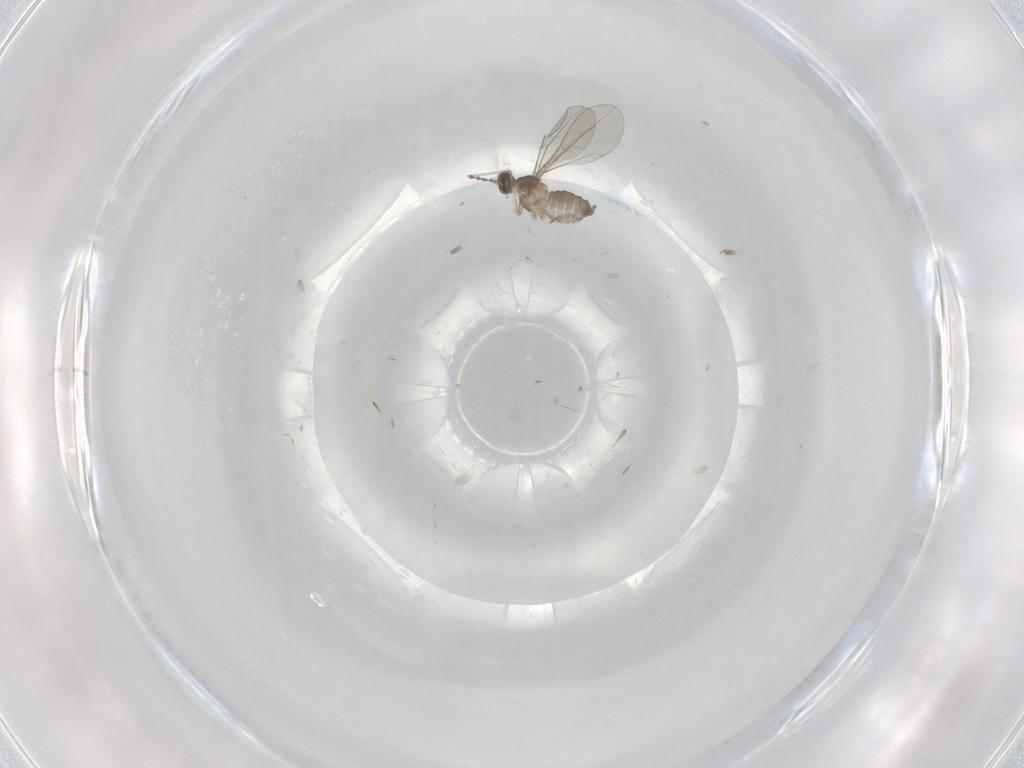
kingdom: Animalia
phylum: Arthropoda
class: Insecta
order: Diptera
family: Cecidomyiidae
